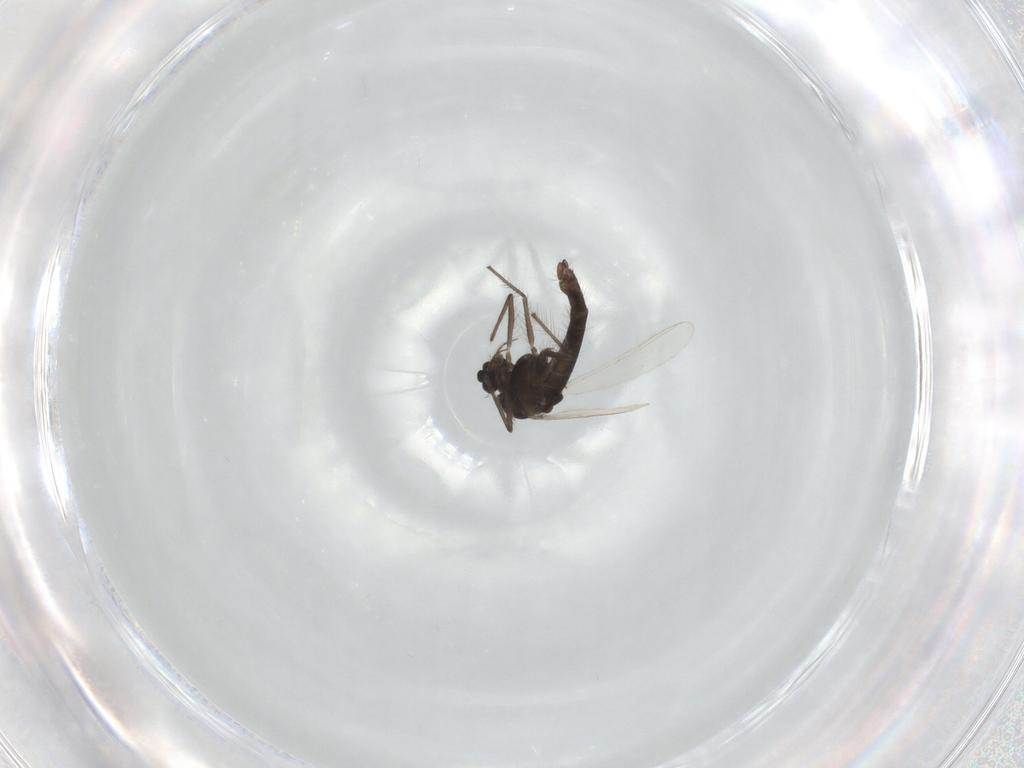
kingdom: Animalia
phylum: Arthropoda
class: Insecta
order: Diptera
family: Chironomidae
